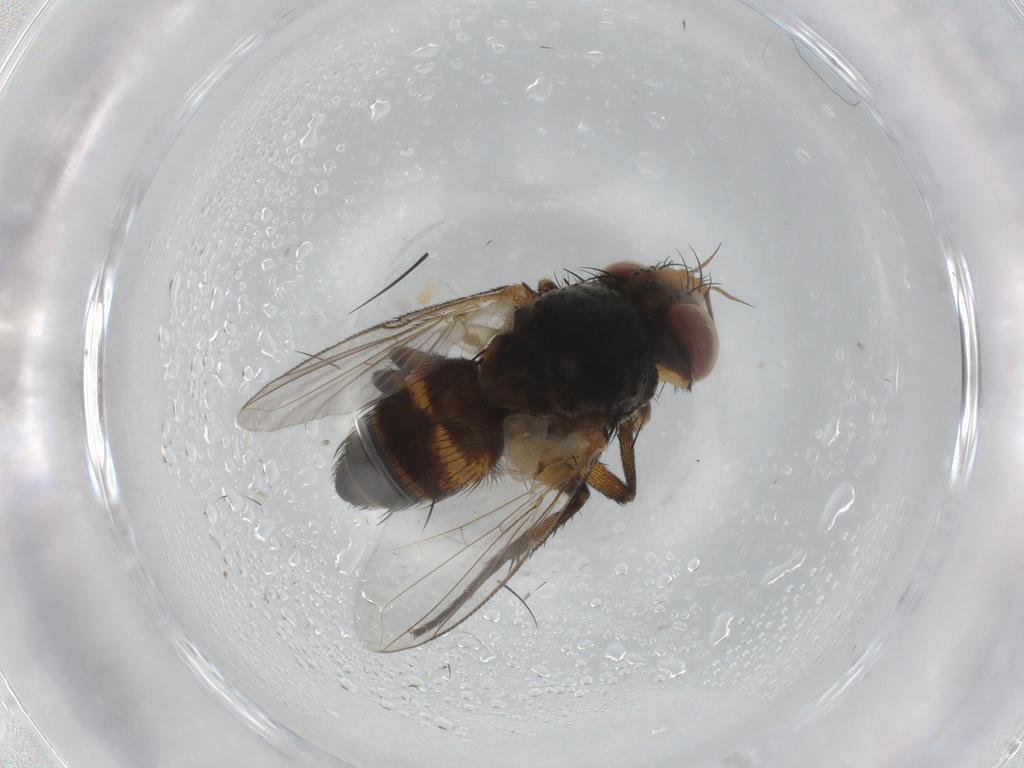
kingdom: Animalia
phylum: Arthropoda
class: Insecta
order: Diptera
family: Tachinidae
